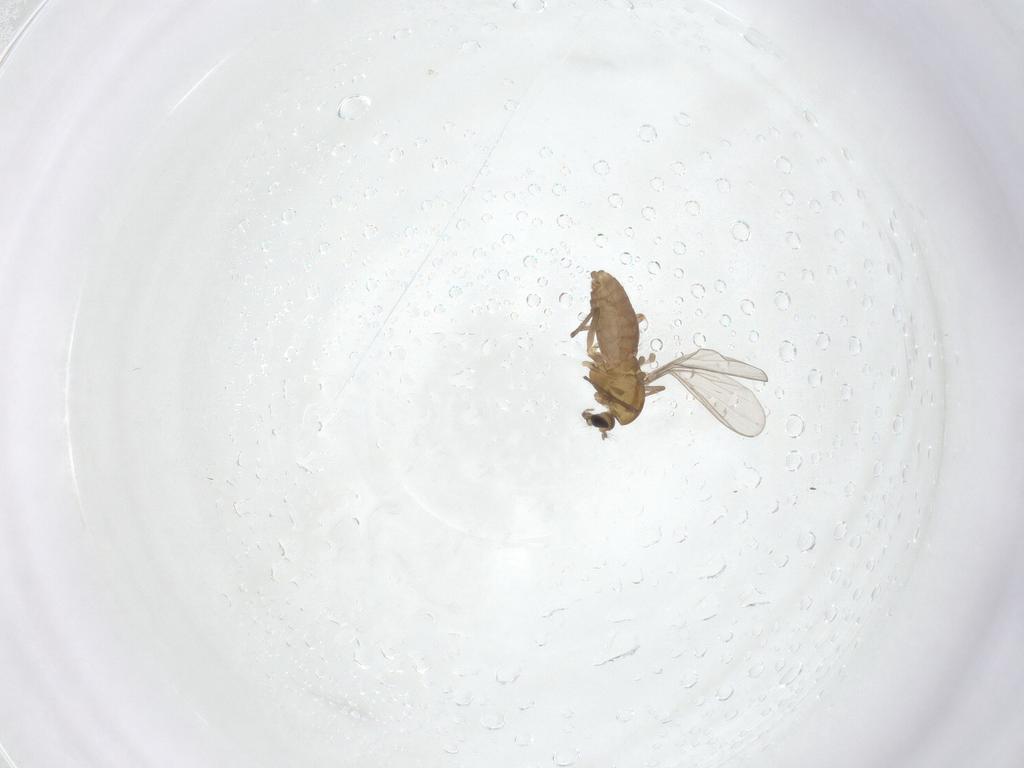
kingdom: Animalia
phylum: Arthropoda
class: Insecta
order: Diptera
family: Chironomidae
